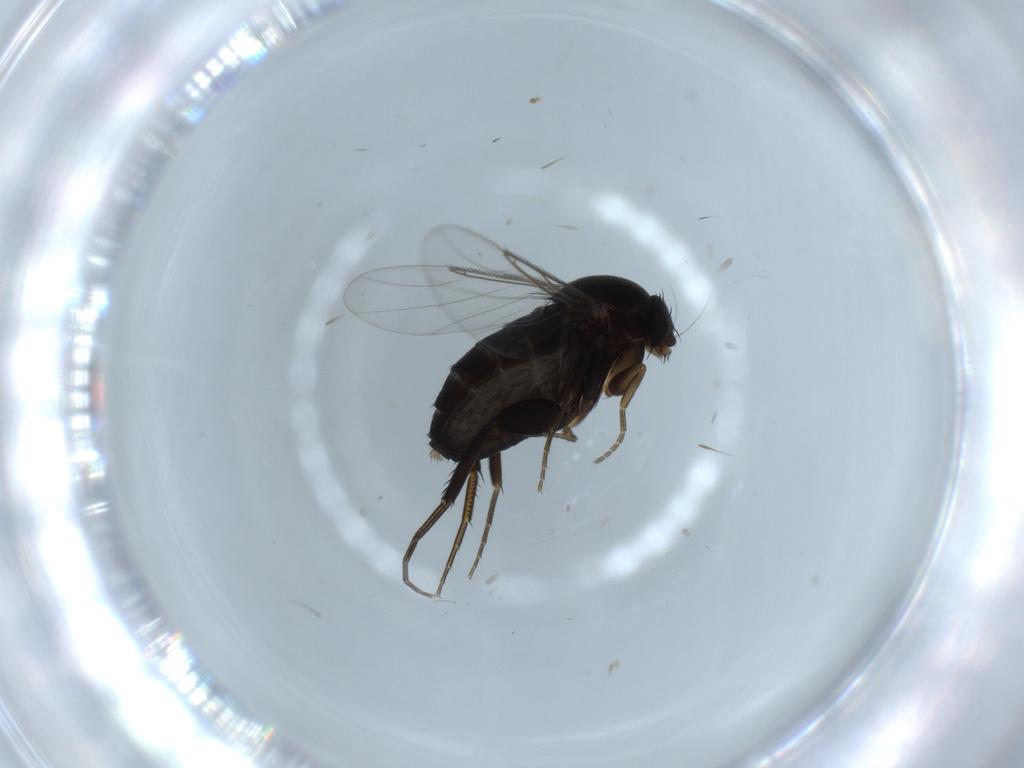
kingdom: Animalia
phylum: Arthropoda
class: Insecta
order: Diptera
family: Phoridae
